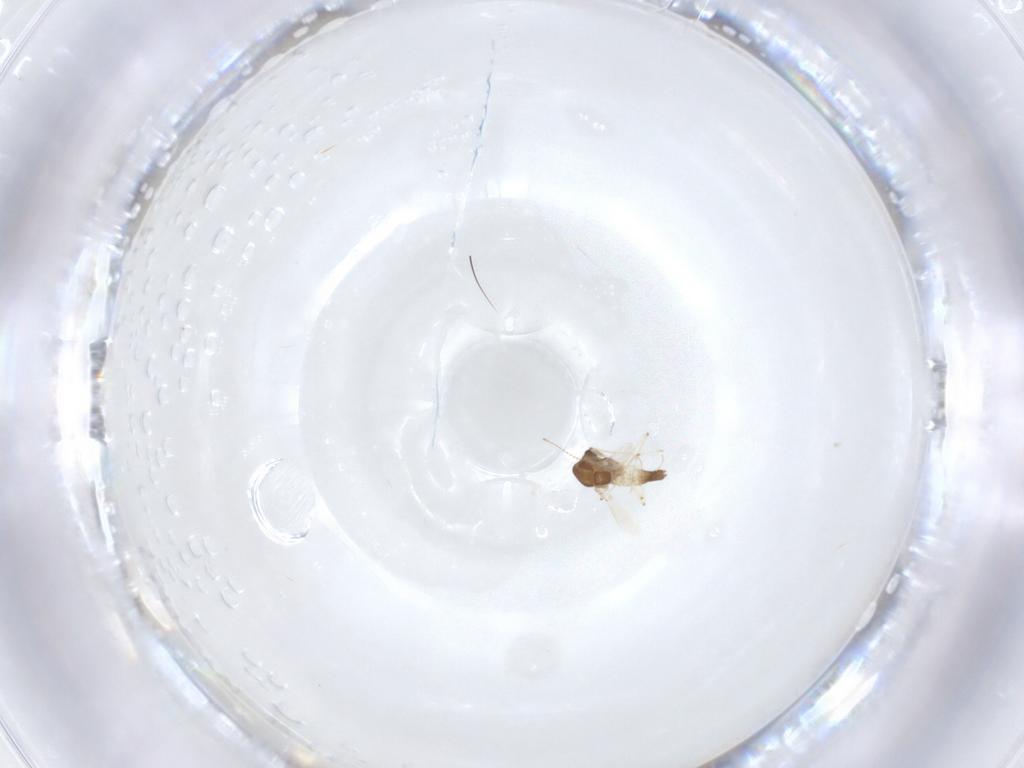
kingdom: Animalia
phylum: Arthropoda
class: Insecta
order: Diptera
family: Chironomidae
